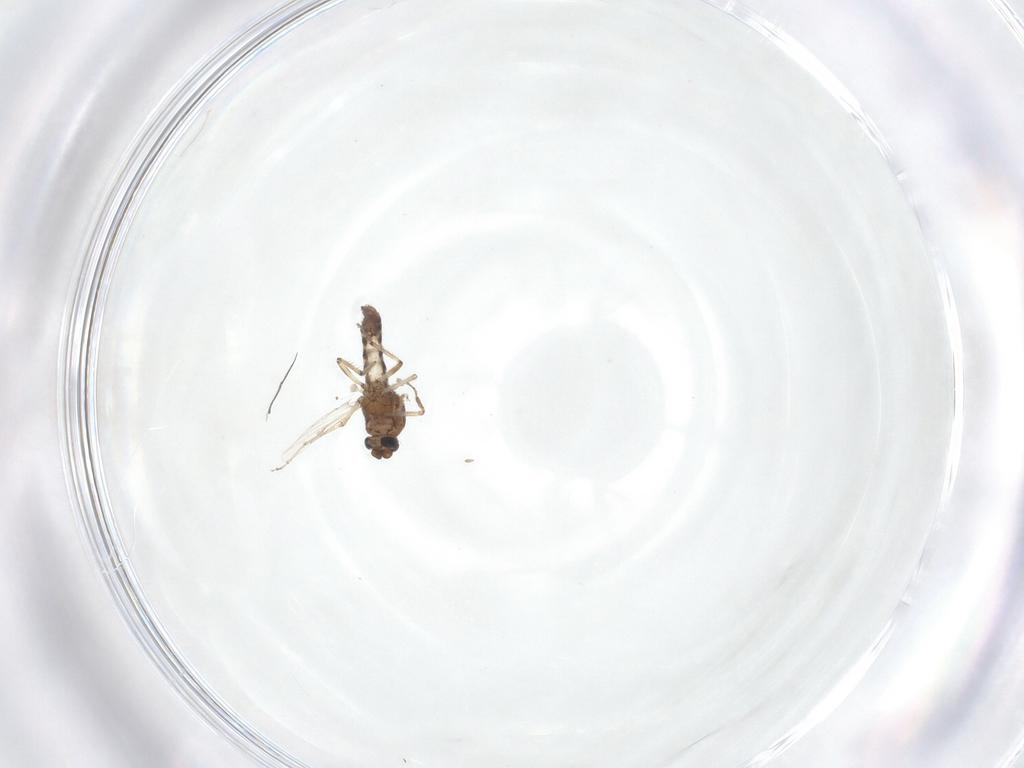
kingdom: Animalia
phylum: Arthropoda
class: Insecta
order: Diptera
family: Ceratopogonidae
